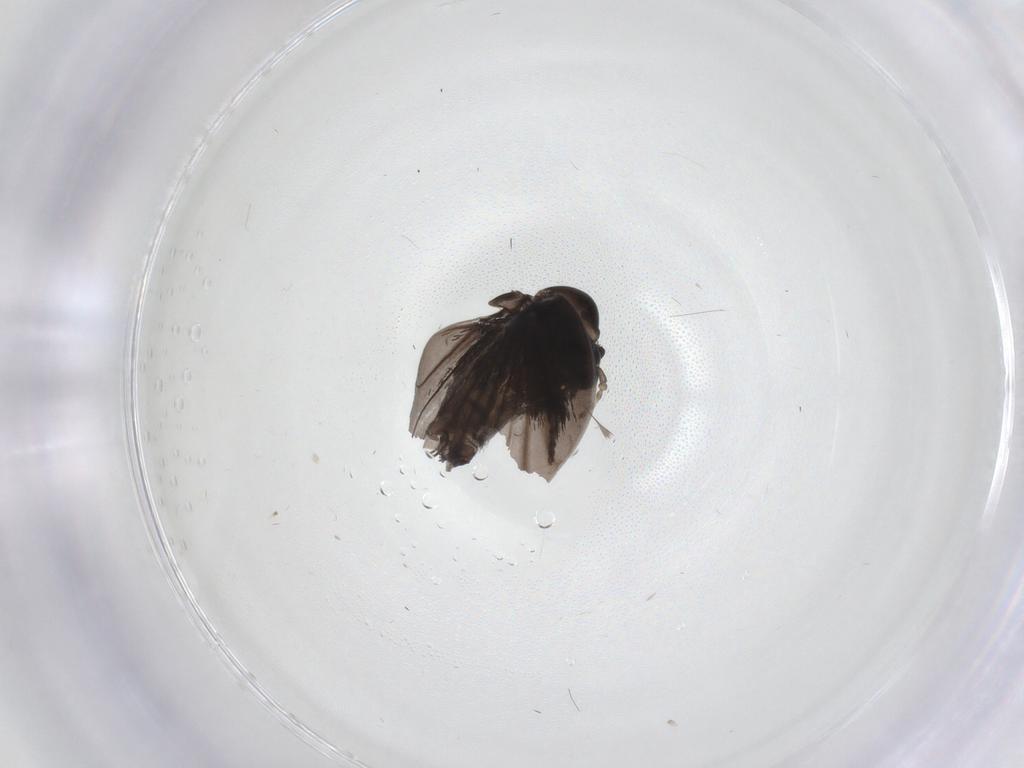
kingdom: Animalia
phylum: Arthropoda
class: Insecta
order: Diptera
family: Psychodidae
